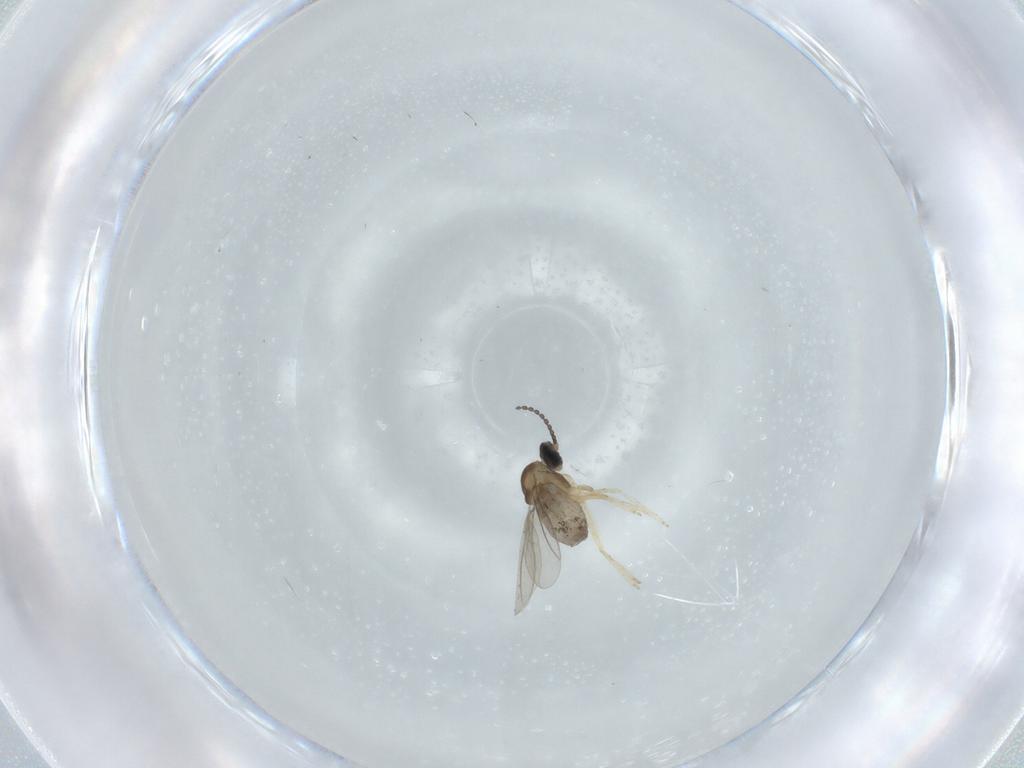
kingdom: Animalia
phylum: Arthropoda
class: Insecta
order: Diptera
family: Cecidomyiidae
